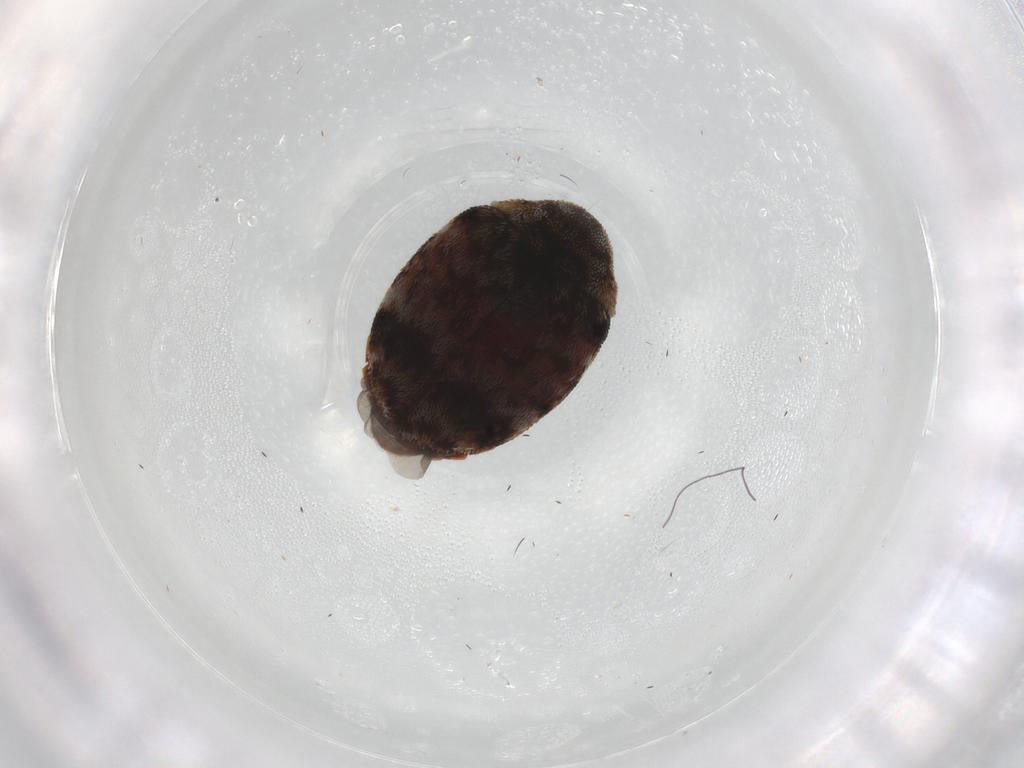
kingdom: Animalia
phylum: Arthropoda
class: Insecta
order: Coleoptera
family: Dermestidae
